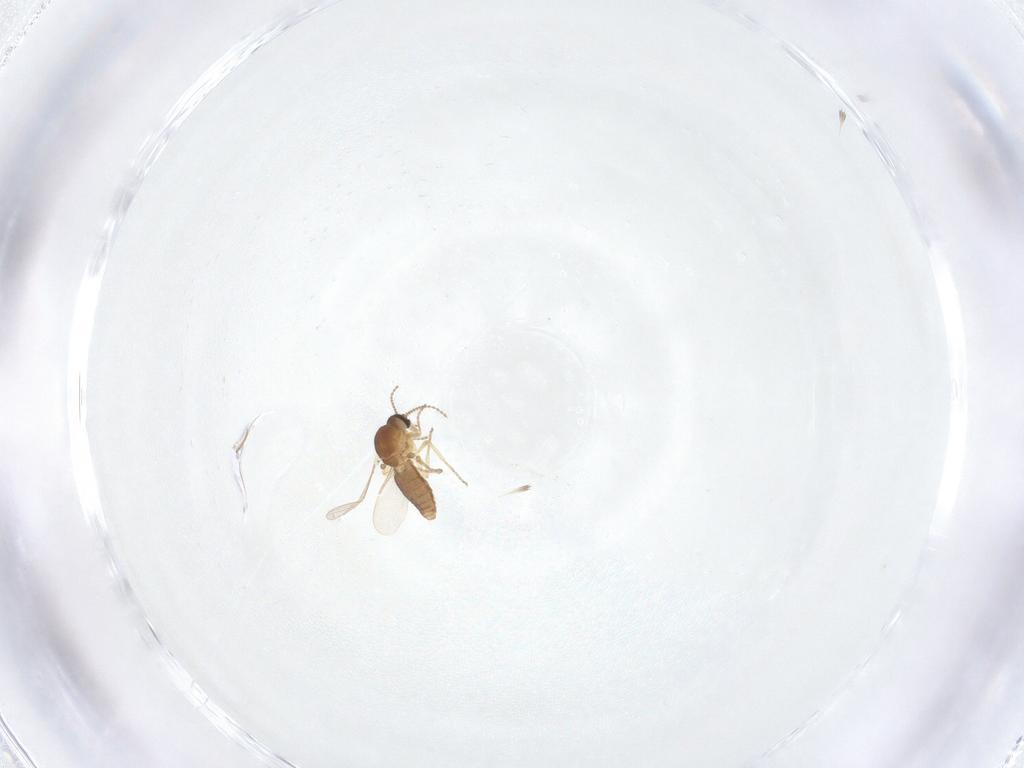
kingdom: Animalia
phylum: Arthropoda
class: Insecta
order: Diptera
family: Ceratopogonidae
